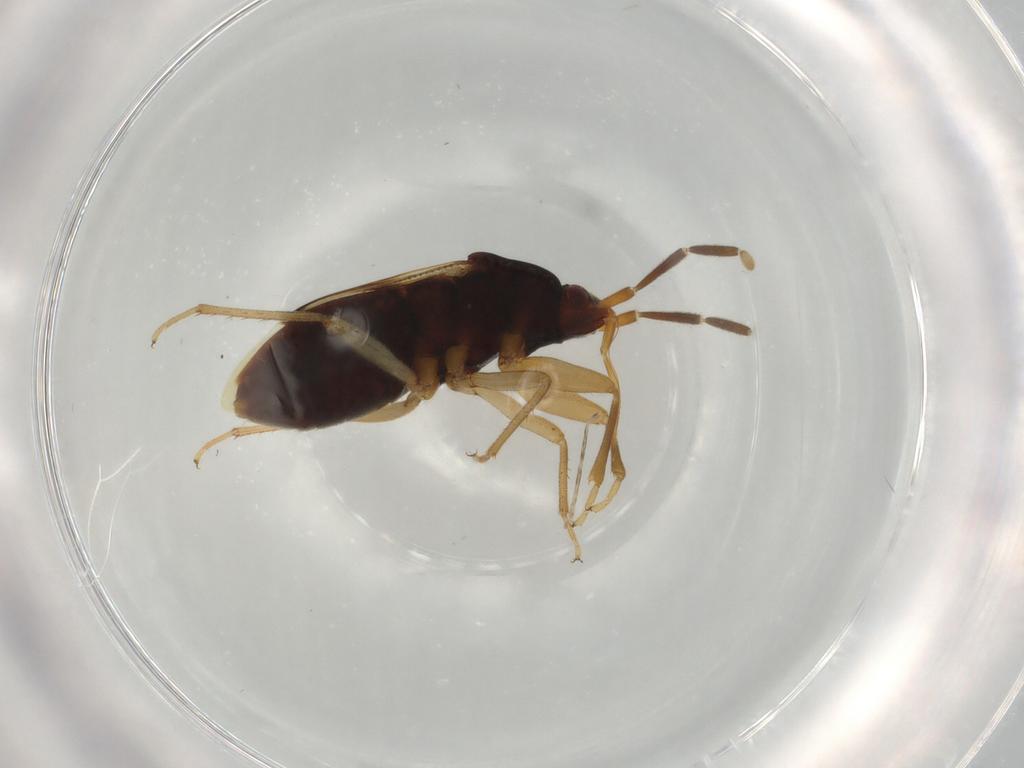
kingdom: Animalia
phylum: Arthropoda
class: Insecta
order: Hemiptera
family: Rhyparochromidae
